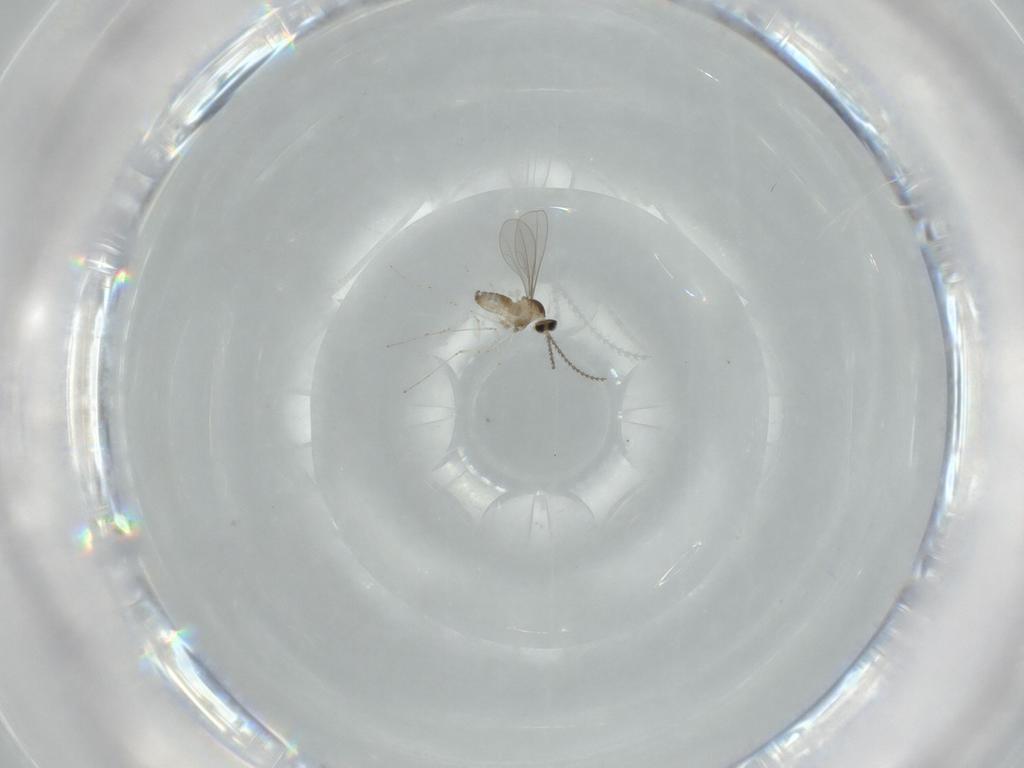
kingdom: Animalia
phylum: Arthropoda
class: Insecta
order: Diptera
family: Cecidomyiidae
